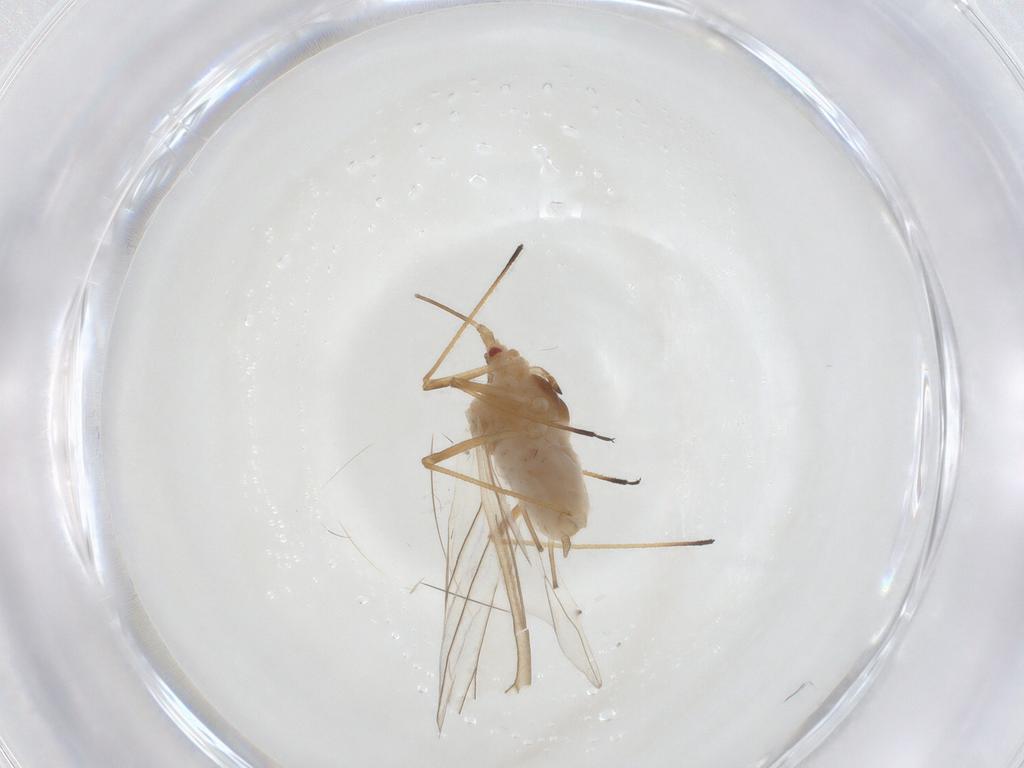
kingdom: Animalia
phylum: Arthropoda
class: Insecta
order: Hemiptera
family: Aphididae
